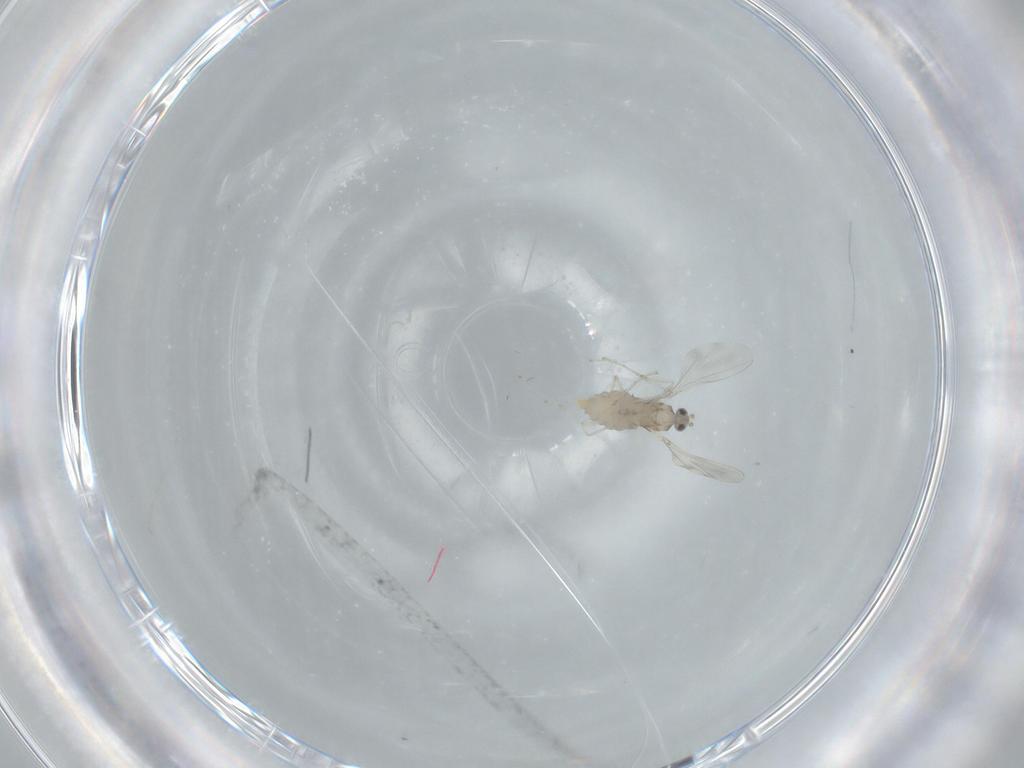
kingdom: Animalia
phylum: Arthropoda
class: Insecta
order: Diptera
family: Cecidomyiidae
